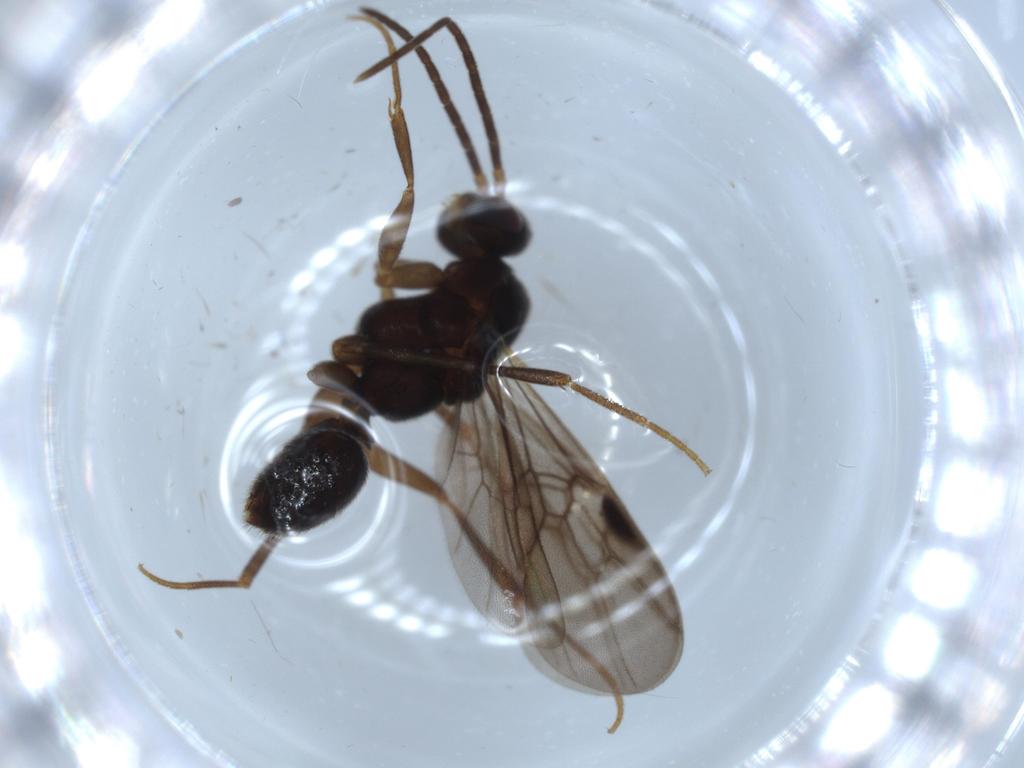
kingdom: Animalia
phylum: Arthropoda
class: Insecta
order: Hymenoptera
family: Formicidae
